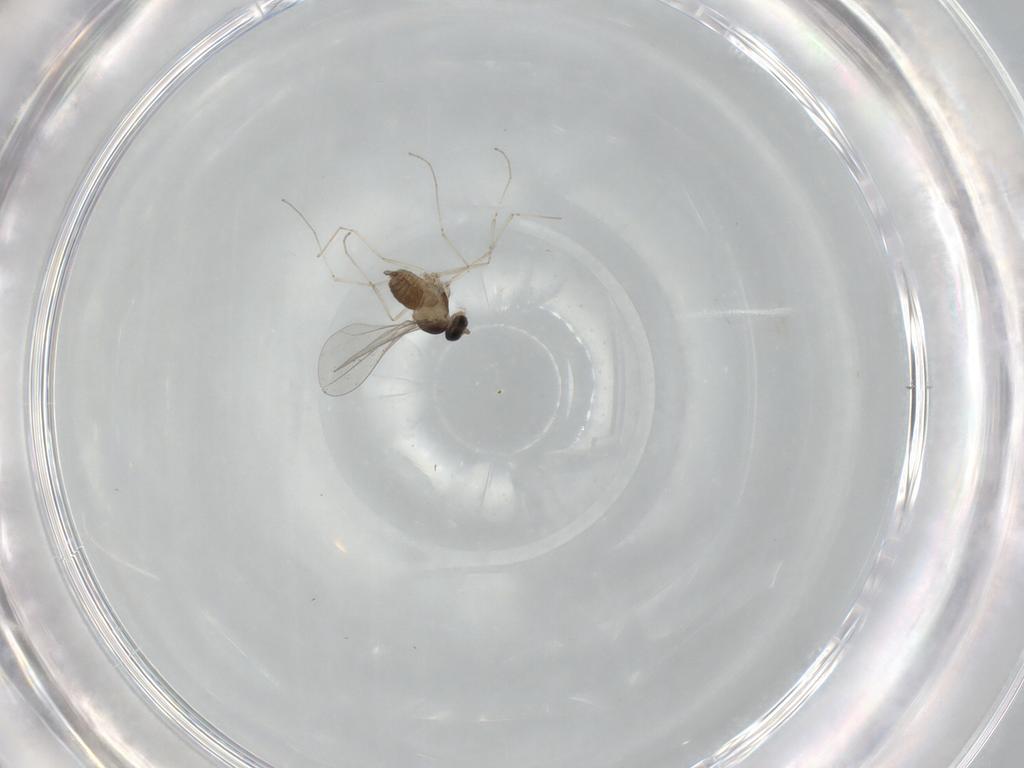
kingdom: Animalia
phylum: Arthropoda
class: Insecta
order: Diptera
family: Cecidomyiidae
